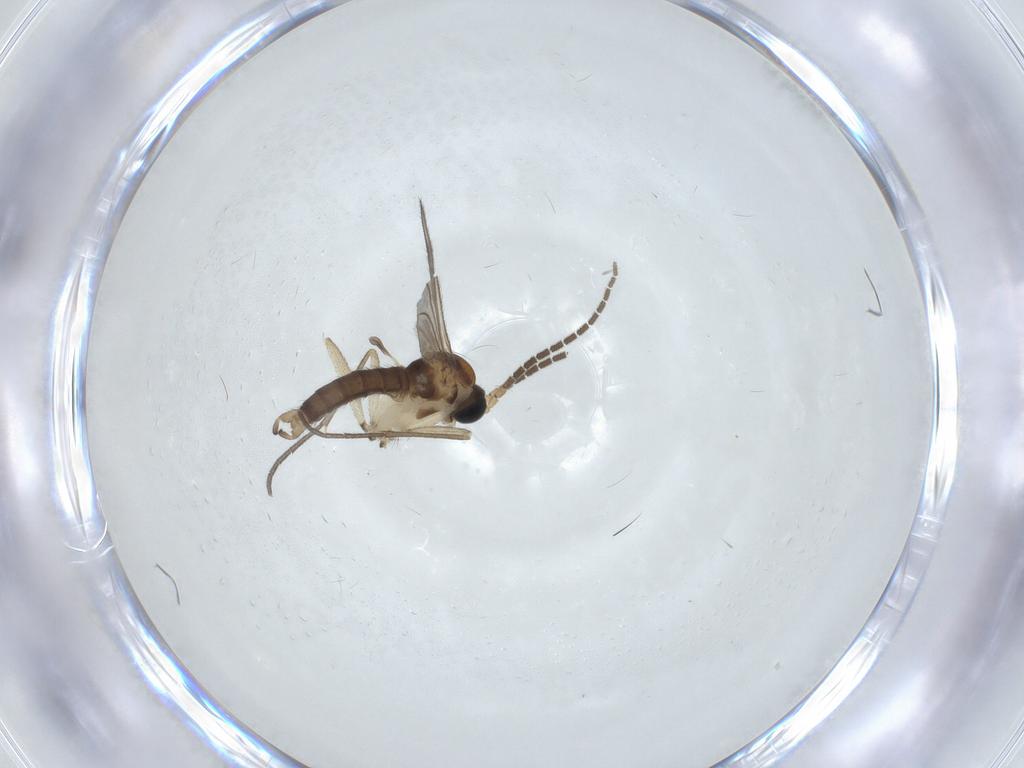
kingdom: Animalia
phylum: Arthropoda
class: Insecta
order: Diptera
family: Sciaridae
